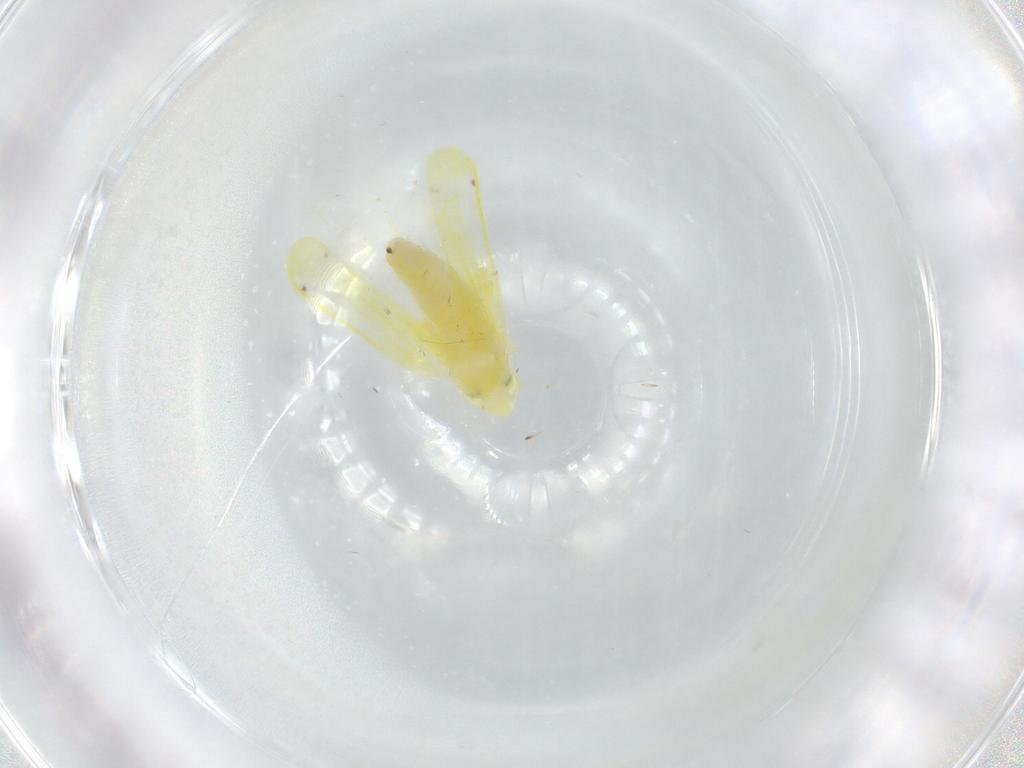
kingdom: Animalia
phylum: Arthropoda
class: Insecta
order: Hemiptera
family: Cicadellidae
